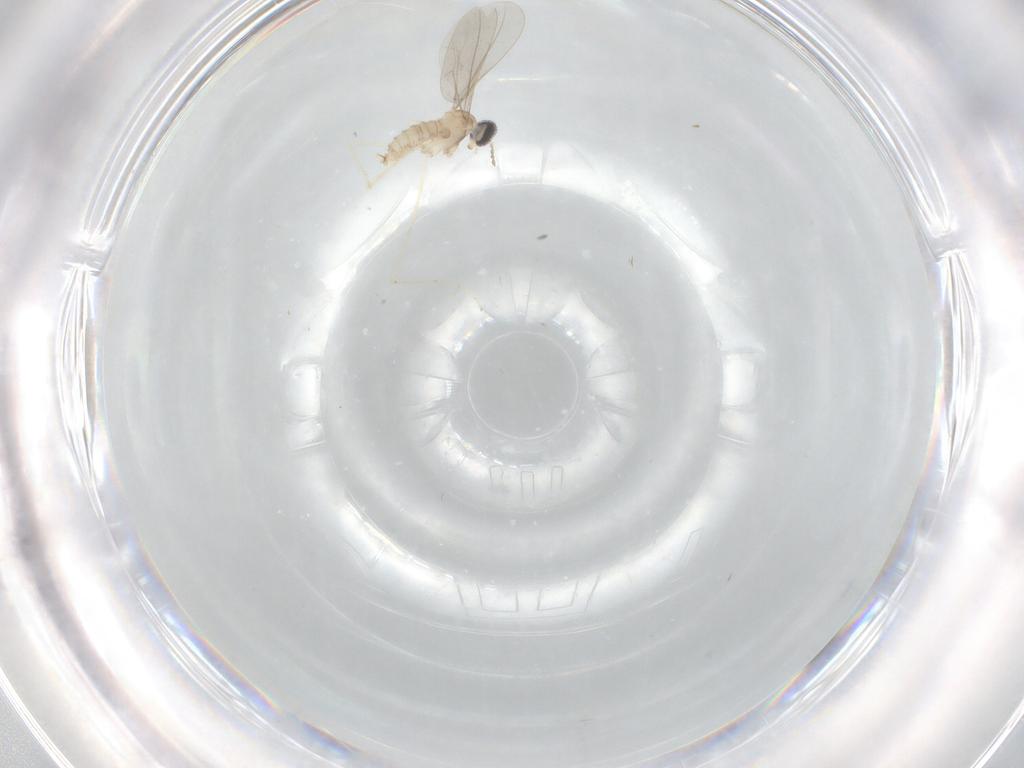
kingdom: Animalia
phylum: Arthropoda
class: Insecta
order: Diptera
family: Cecidomyiidae
